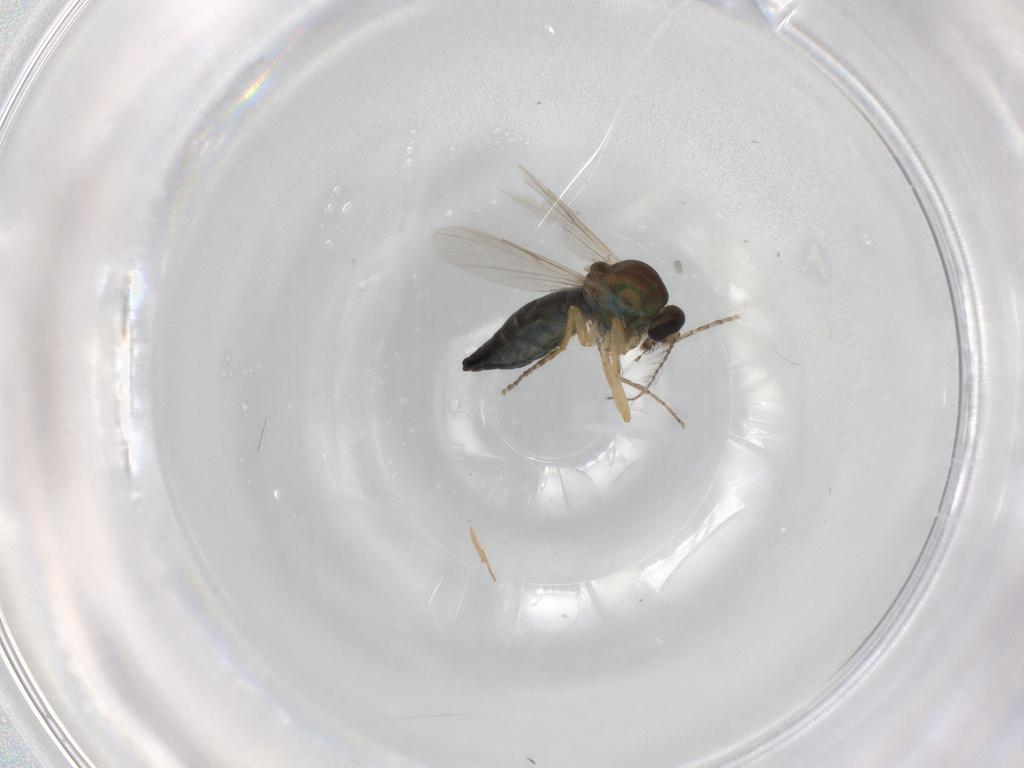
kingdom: Animalia
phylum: Arthropoda
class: Insecta
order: Diptera
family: Ceratopogonidae
